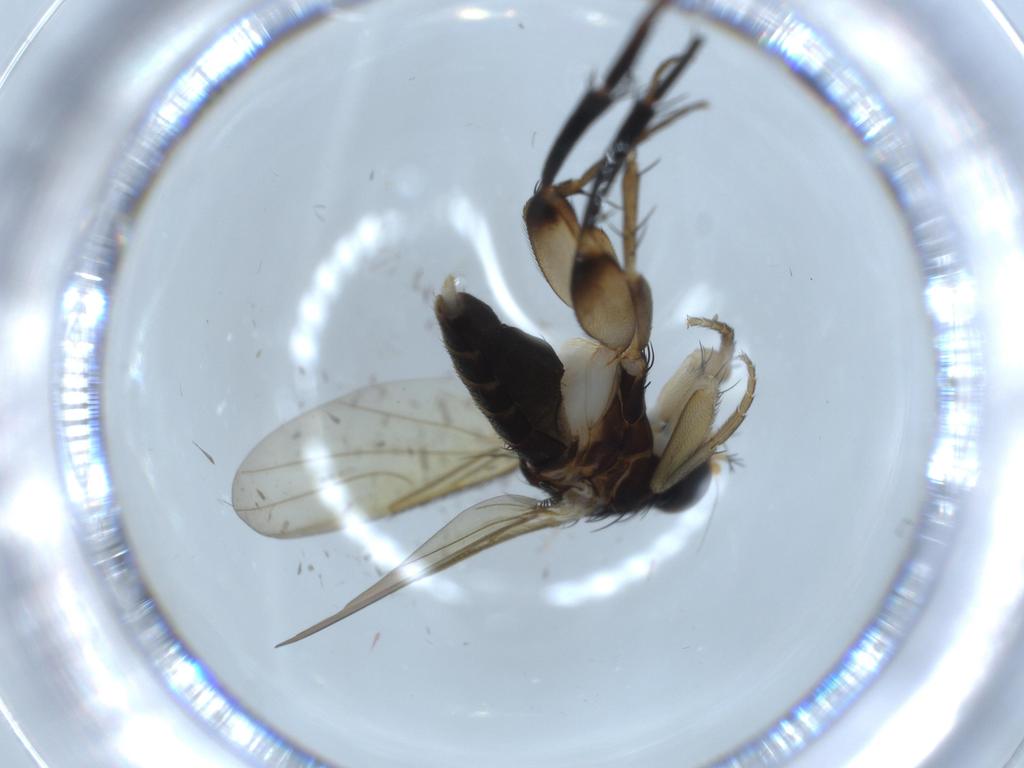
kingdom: Animalia
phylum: Arthropoda
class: Insecta
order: Diptera
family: Phoridae
